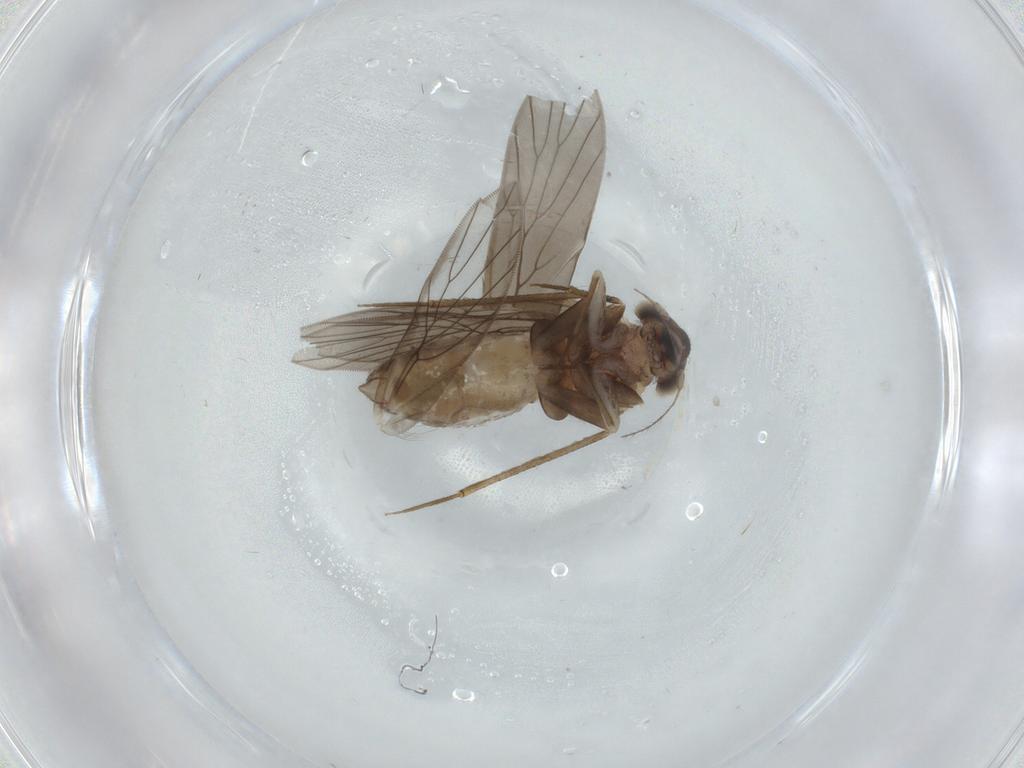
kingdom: Animalia
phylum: Arthropoda
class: Insecta
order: Psocodea
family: Lepidopsocidae
